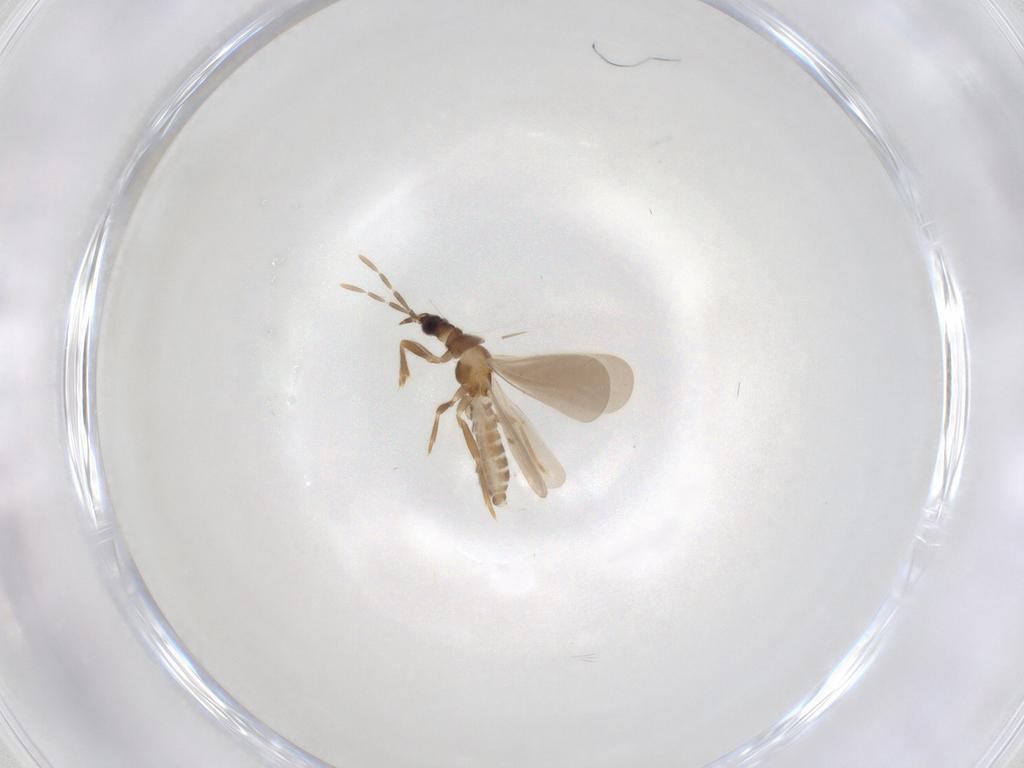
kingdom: Animalia
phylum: Arthropoda
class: Insecta
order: Hemiptera
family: Enicocephalidae
